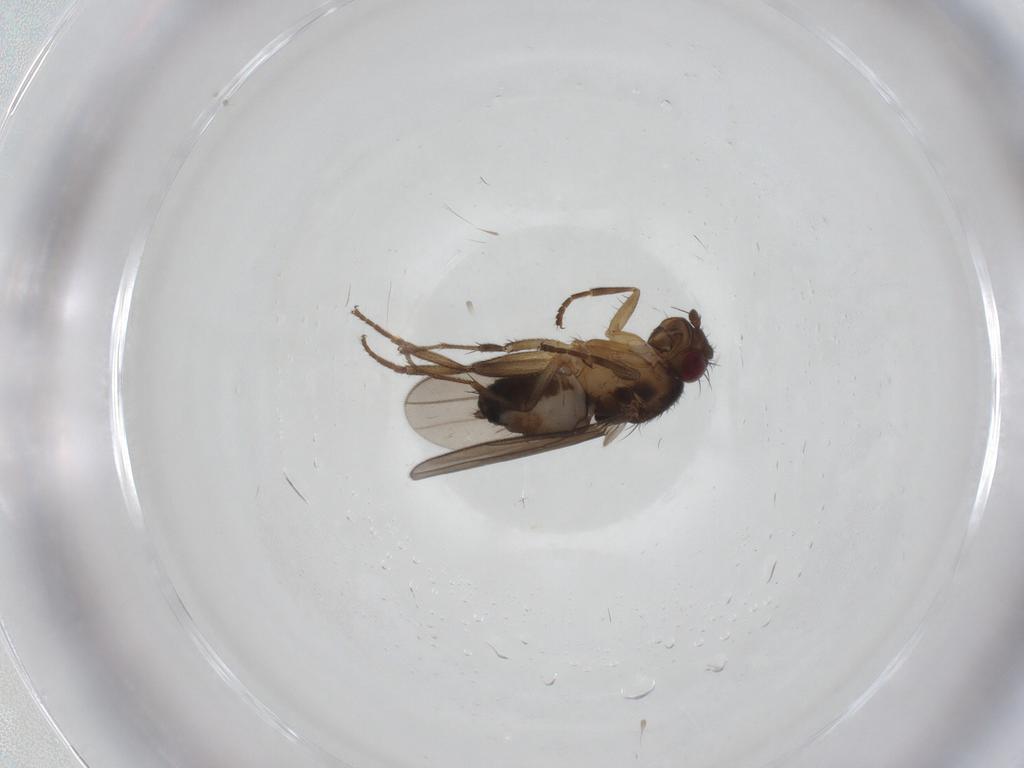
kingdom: Animalia
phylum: Arthropoda
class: Insecta
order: Diptera
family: Sphaeroceridae
